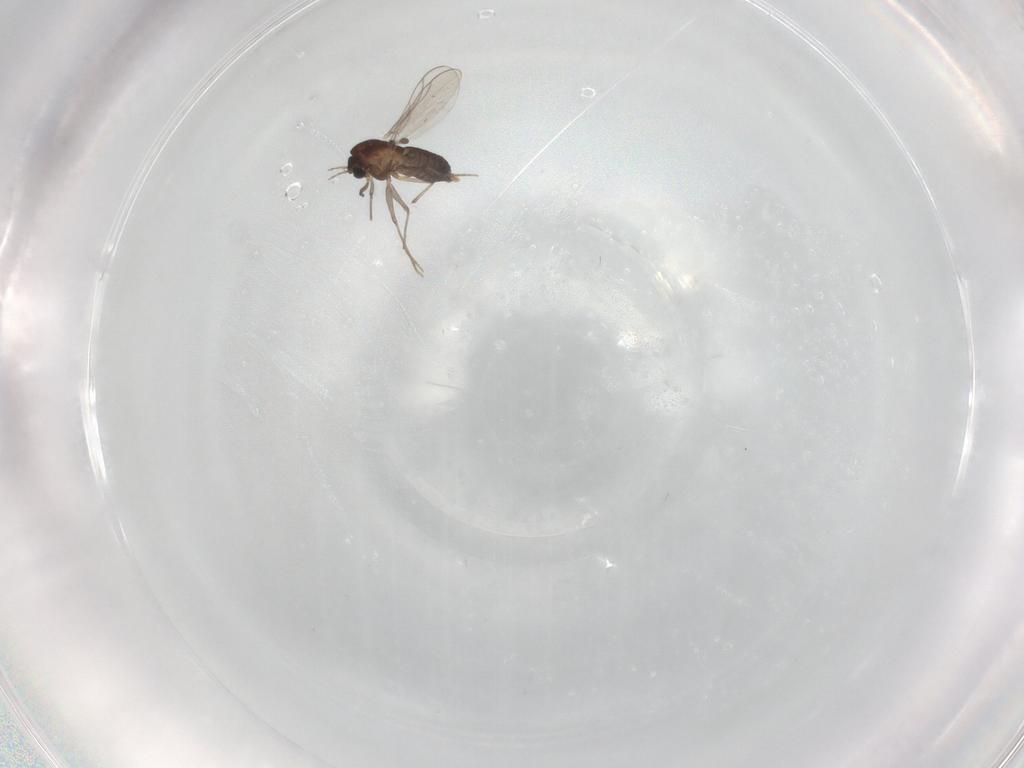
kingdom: Animalia
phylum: Arthropoda
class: Insecta
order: Diptera
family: Chironomidae
